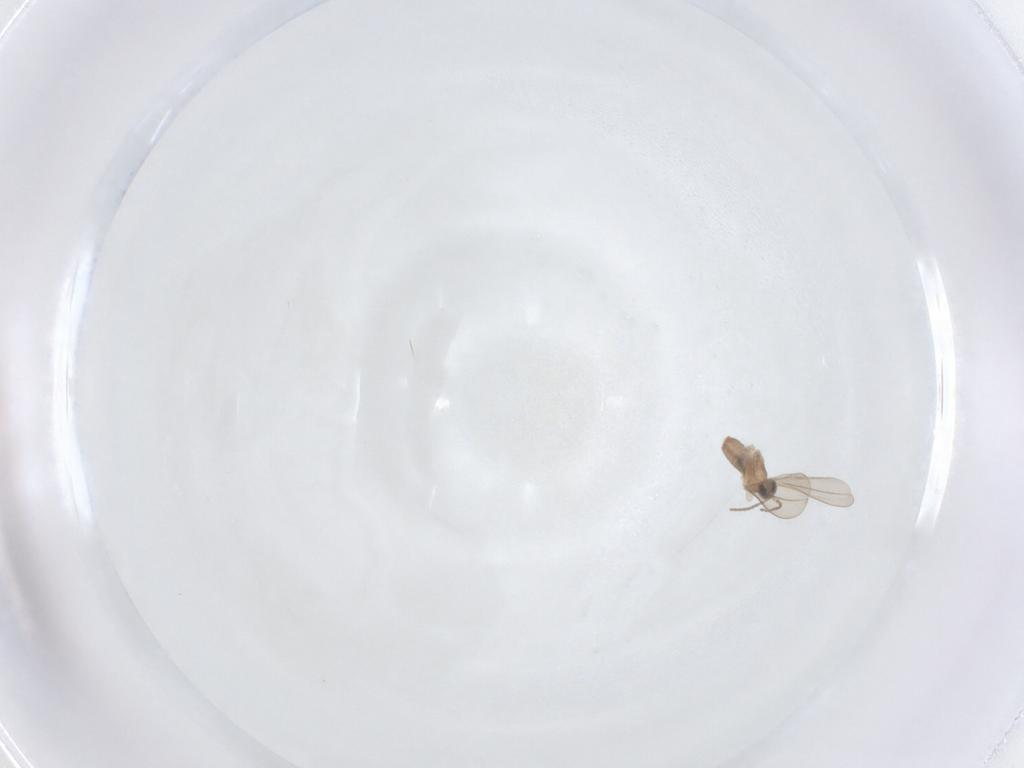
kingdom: Animalia
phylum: Arthropoda
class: Insecta
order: Diptera
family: Cecidomyiidae
